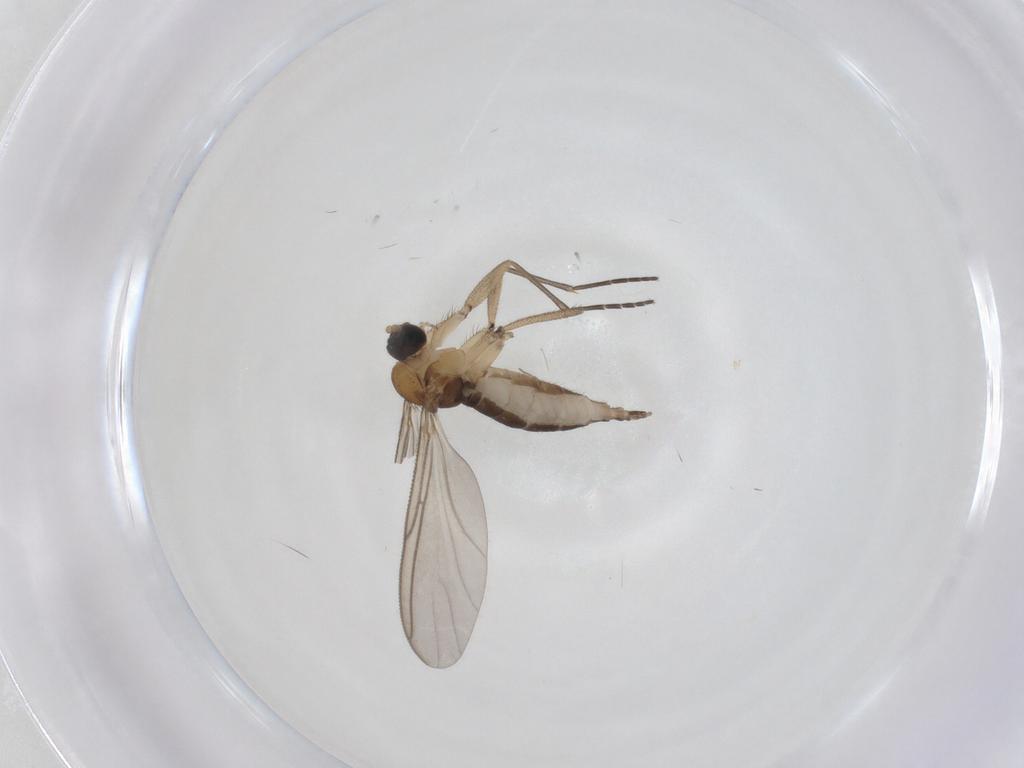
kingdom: Animalia
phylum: Arthropoda
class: Insecta
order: Diptera
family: Sciaridae
